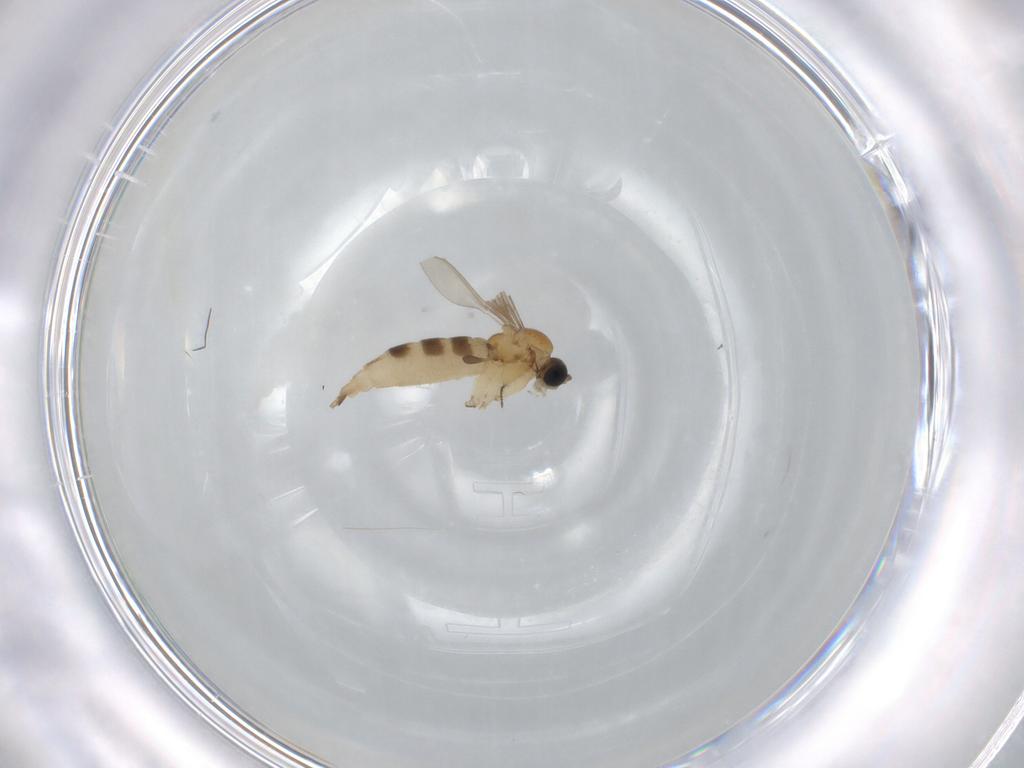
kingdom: Animalia
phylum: Arthropoda
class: Insecta
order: Diptera
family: Ceratopogonidae
